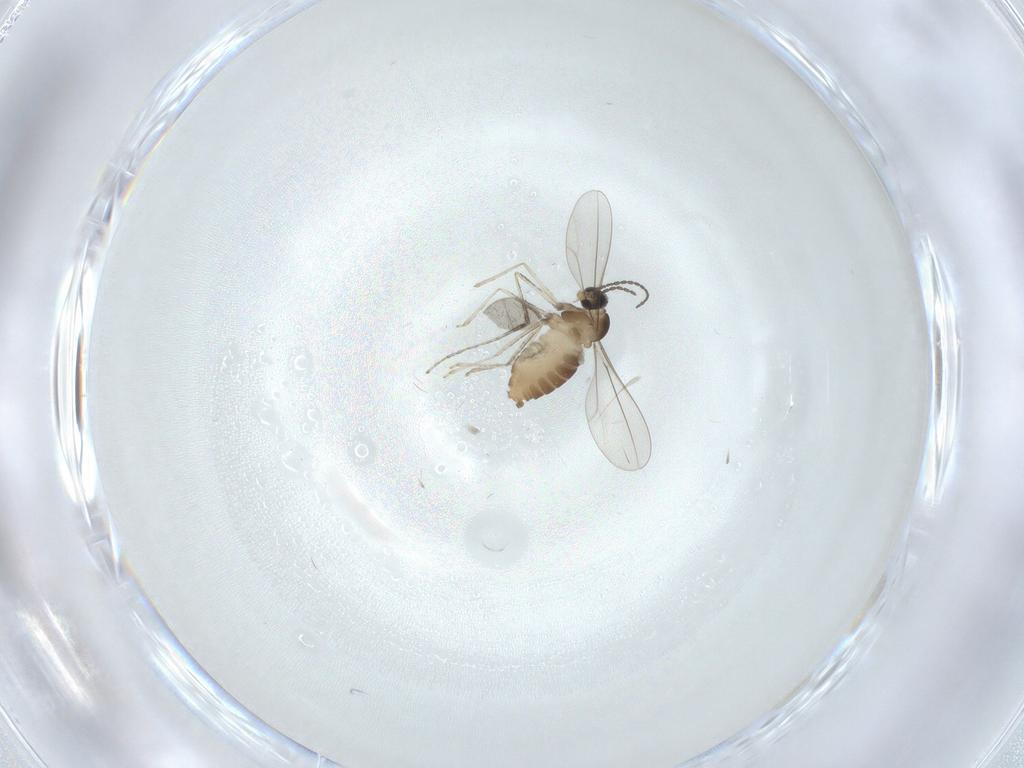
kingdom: Animalia
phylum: Arthropoda
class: Insecta
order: Diptera
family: Cecidomyiidae
